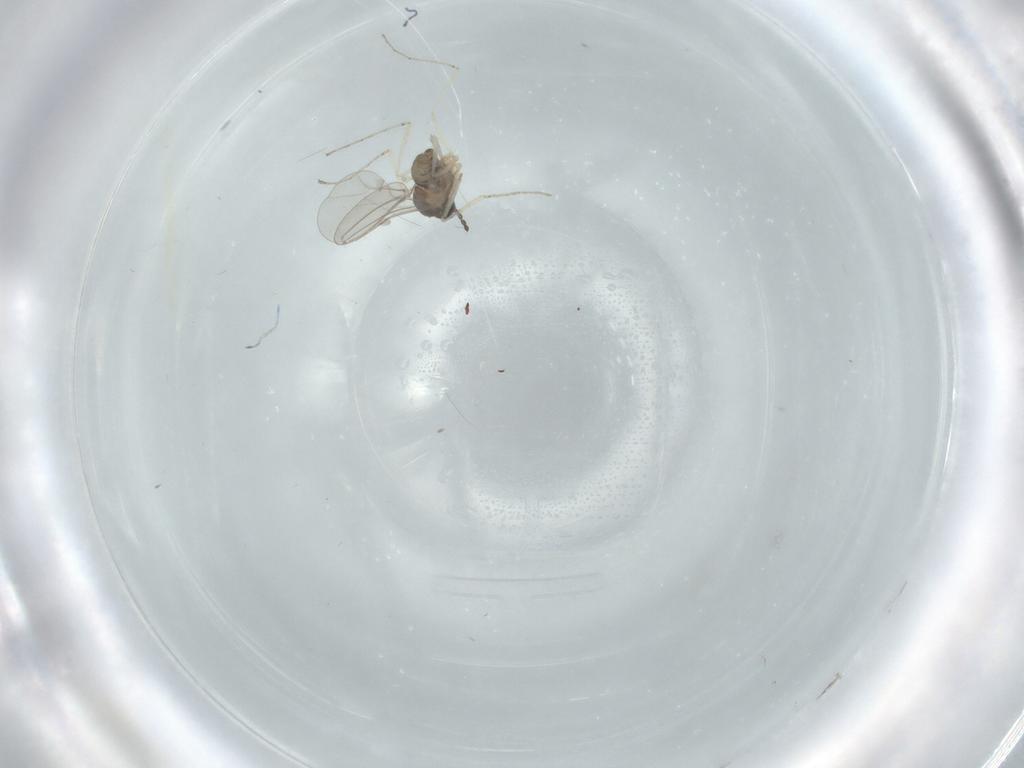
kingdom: Animalia
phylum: Arthropoda
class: Insecta
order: Diptera
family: Cecidomyiidae
